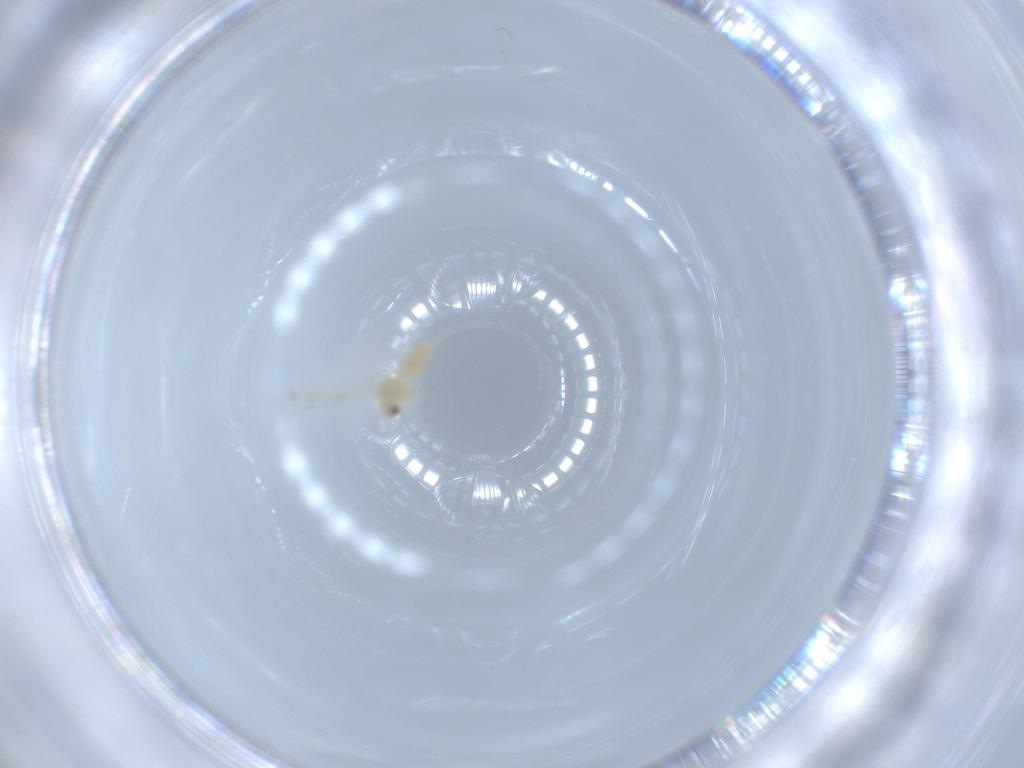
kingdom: Animalia
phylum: Arthropoda
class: Insecta
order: Hemiptera
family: Aleyrodidae
